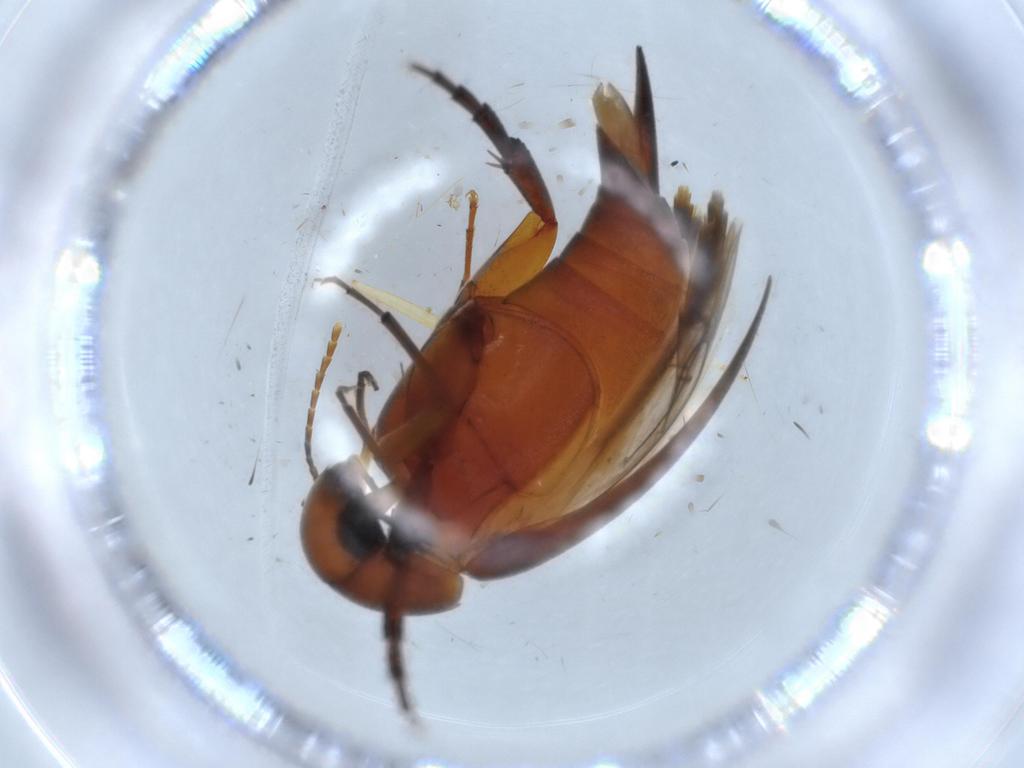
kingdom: Animalia
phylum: Arthropoda
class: Insecta
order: Coleoptera
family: Mordellidae
